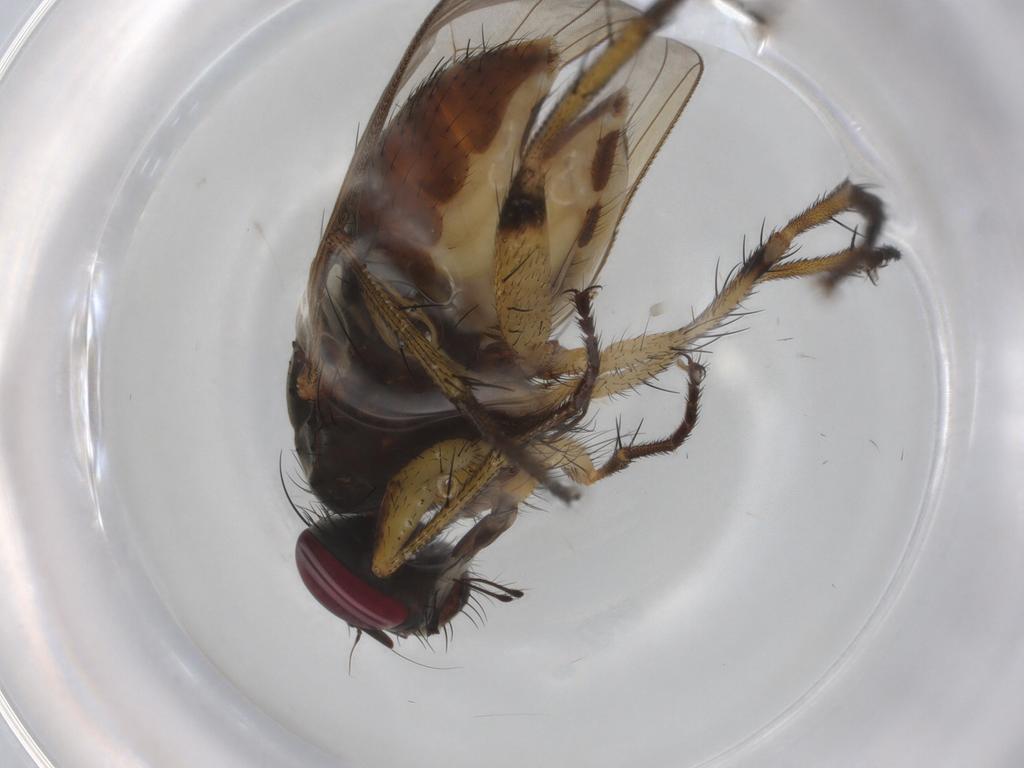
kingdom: Animalia
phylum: Arthropoda
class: Insecta
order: Diptera
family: Muscidae
